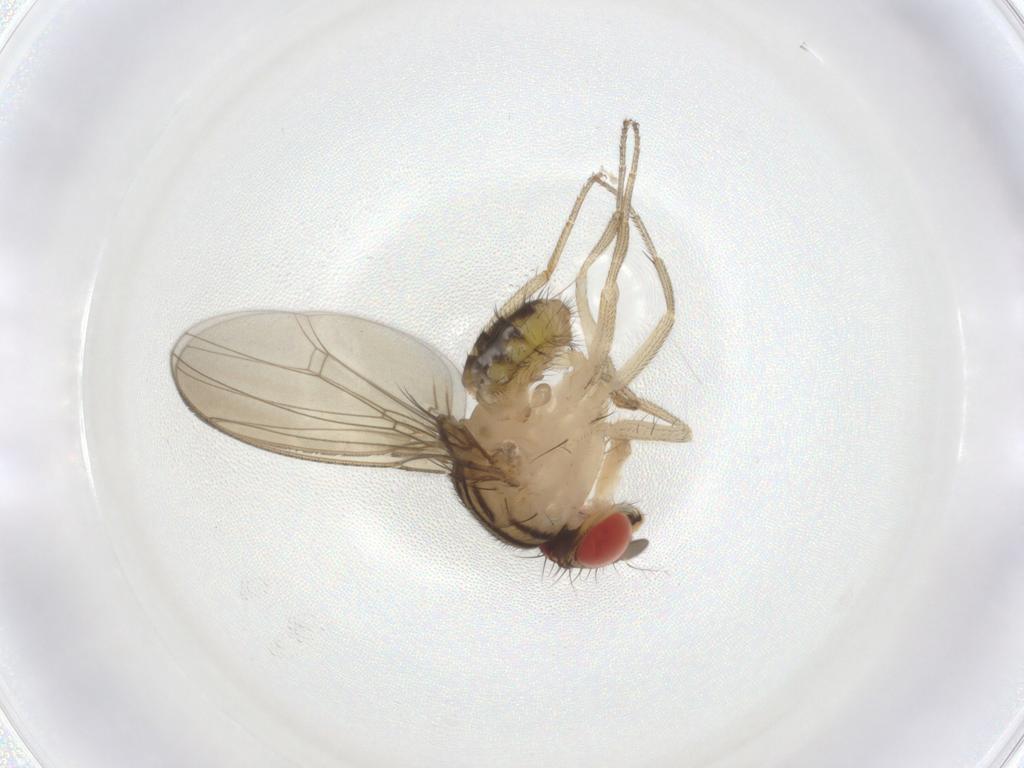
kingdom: Animalia
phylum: Arthropoda
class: Insecta
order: Diptera
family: Drosophilidae
